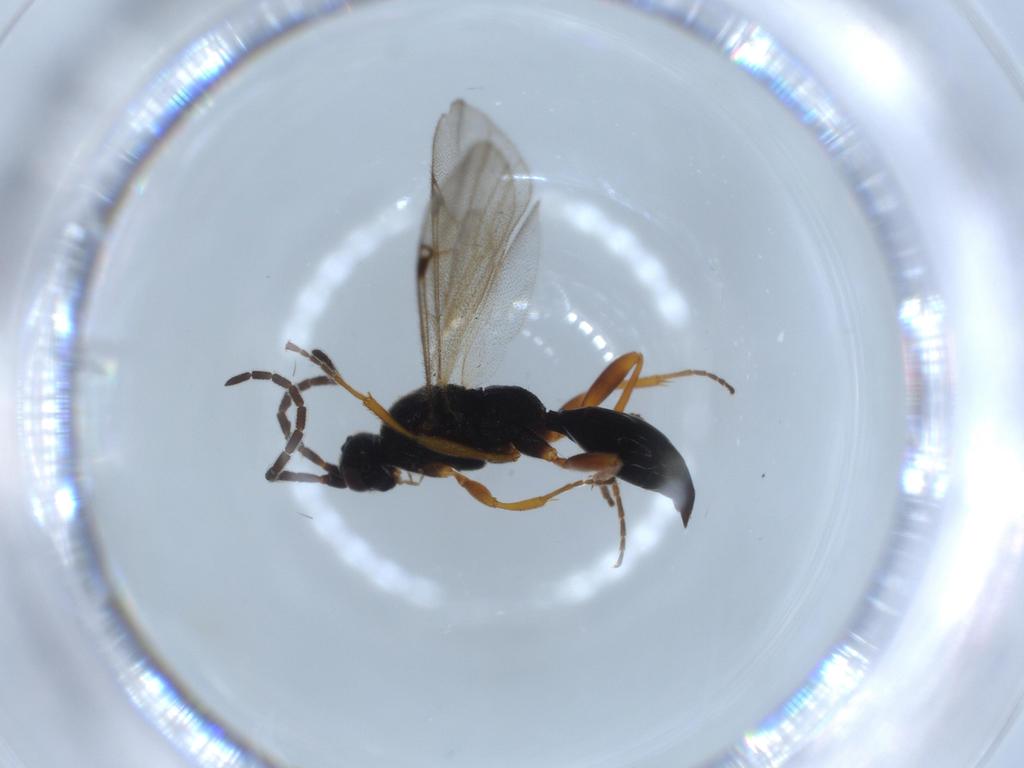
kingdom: Animalia
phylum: Arthropoda
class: Insecta
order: Hymenoptera
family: Proctotrupidae
